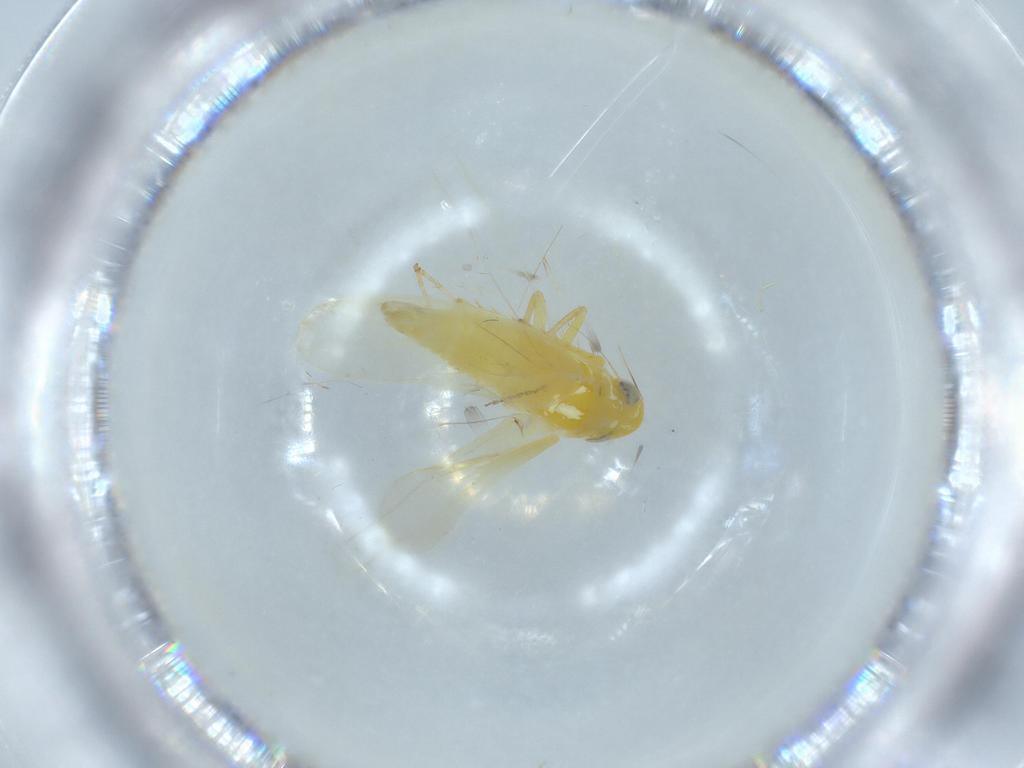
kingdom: Animalia
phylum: Arthropoda
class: Insecta
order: Hemiptera
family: Cicadellidae
